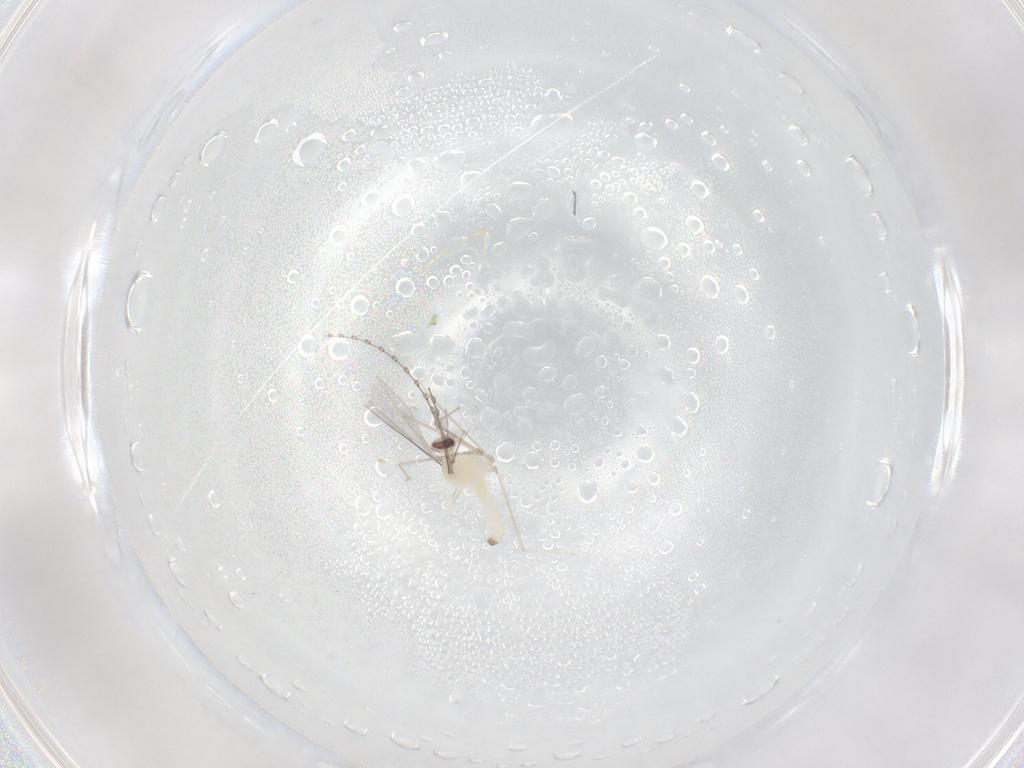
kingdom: Animalia
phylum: Arthropoda
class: Insecta
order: Diptera
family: Cecidomyiidae
